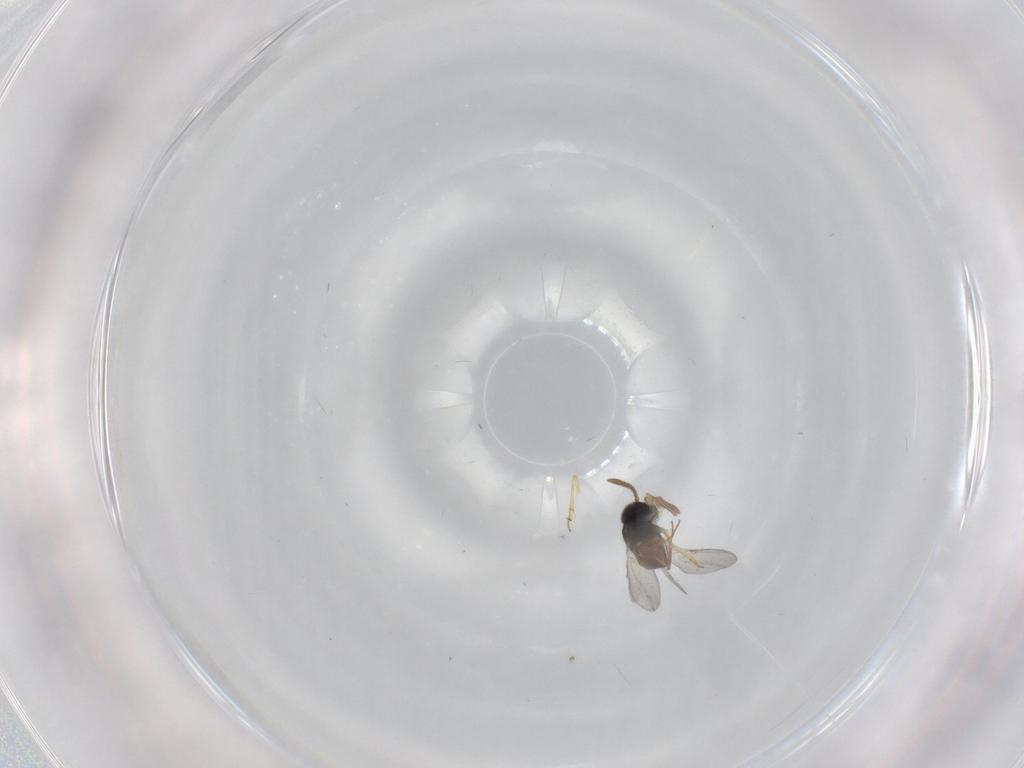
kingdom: Animalia
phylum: Arthropoda
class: Insecta
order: Hymenoptera
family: Encyrtidae
